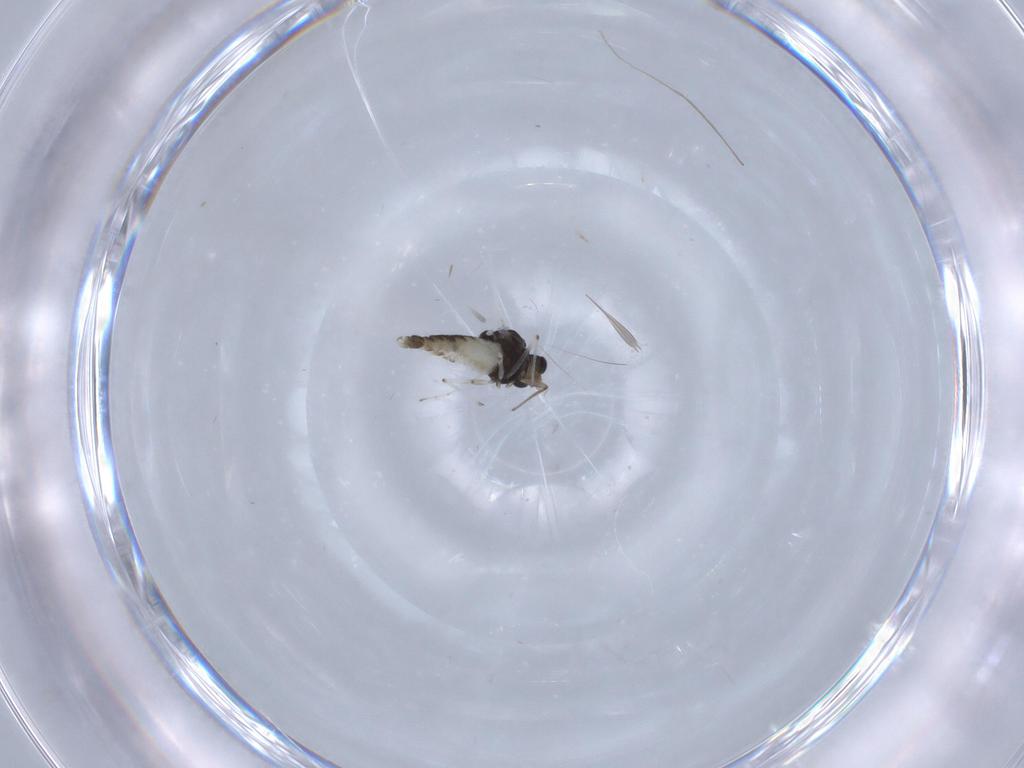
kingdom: Animalia
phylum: Arthropoda
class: Insecta
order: Diptera
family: Chironomidae
